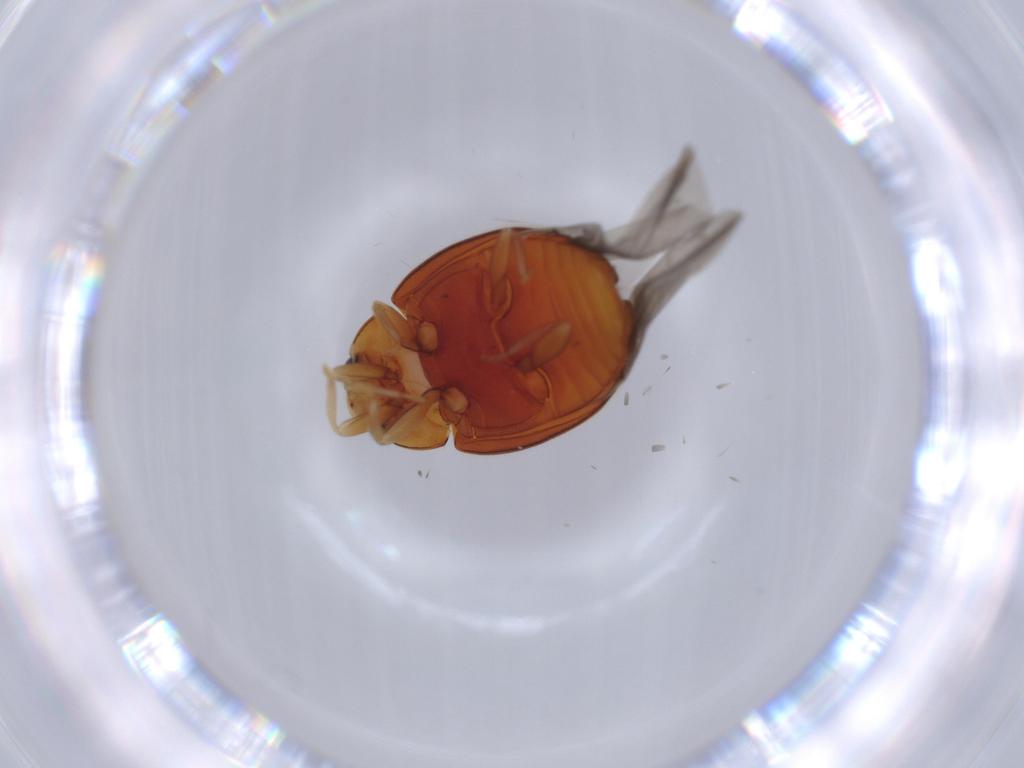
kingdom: Animalia
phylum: Arthropoda
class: Insecta
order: Coleoptera
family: Coccinellidae
